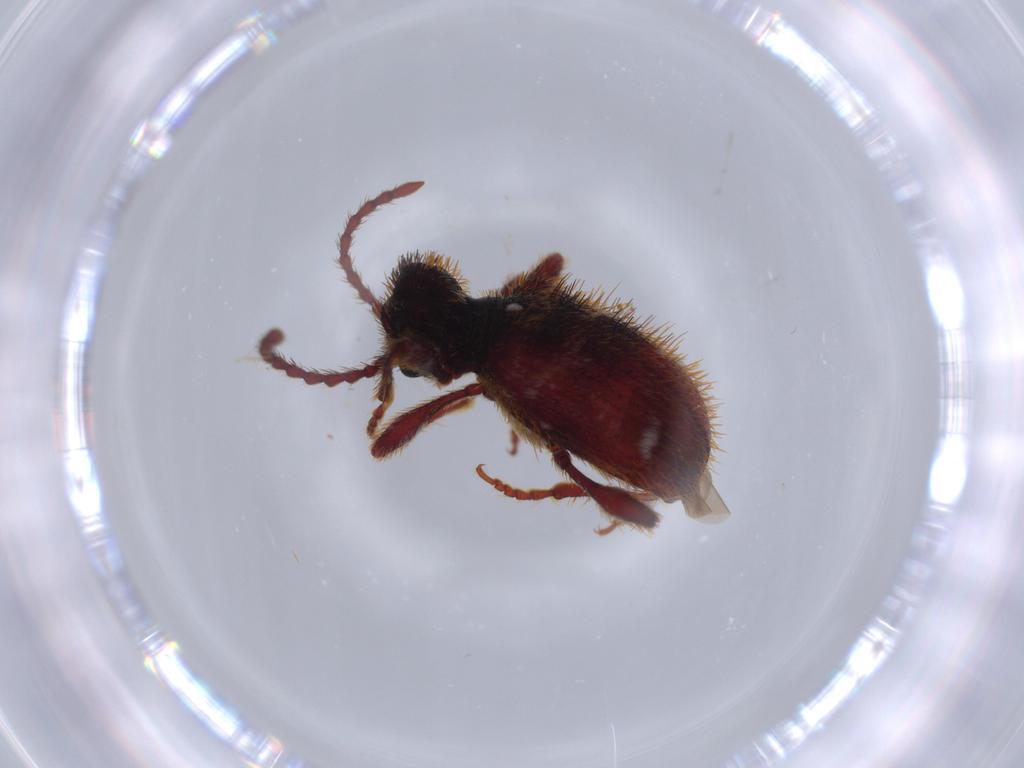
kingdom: Animalia
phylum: Arthropoda
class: Insecta
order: Coleoptera
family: Ptinidae
